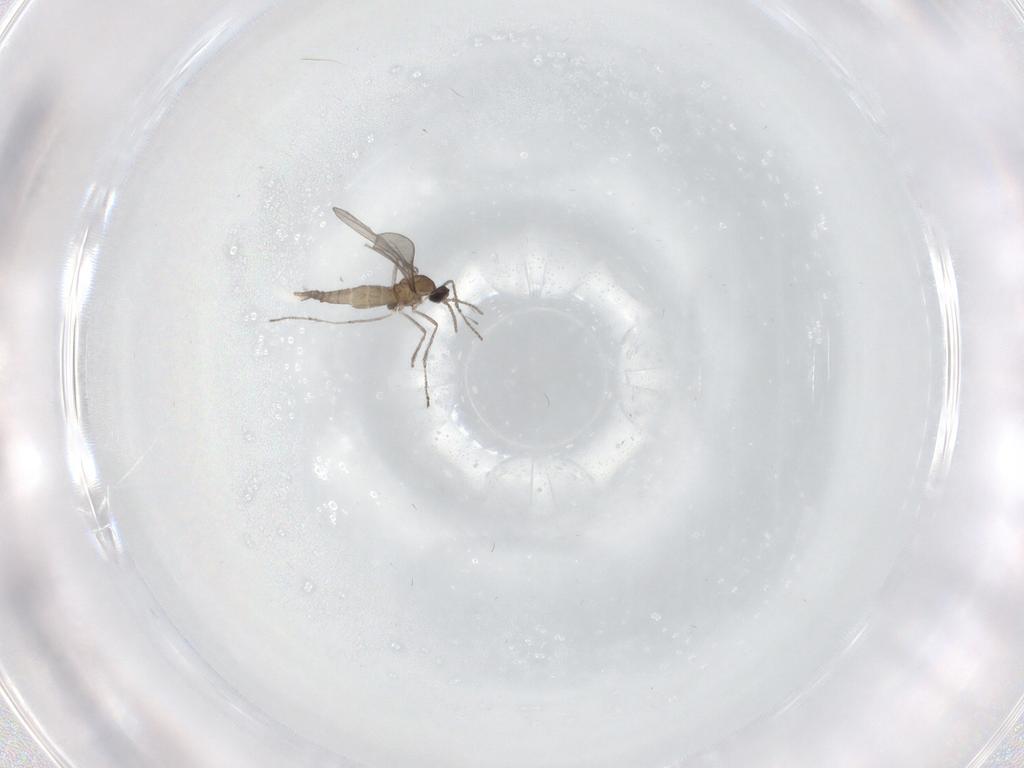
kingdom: Animalia
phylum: Arthropoda
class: Insecta
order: Diptera
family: Cecidomyiidae
